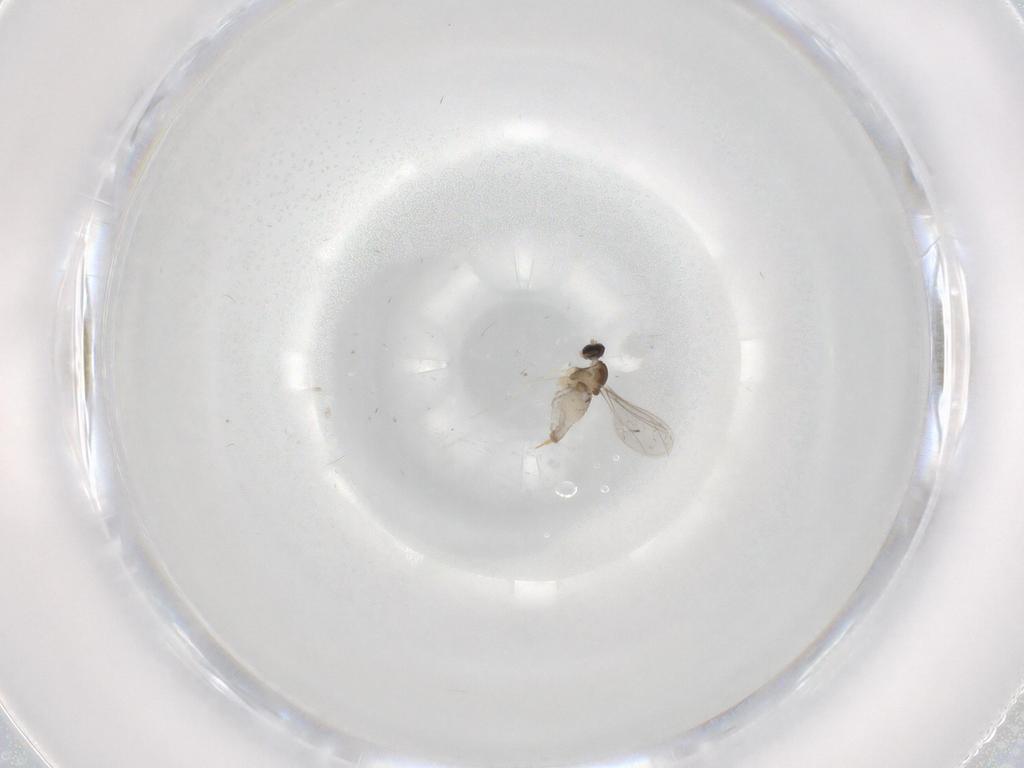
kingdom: Animalia
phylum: Arthropoda
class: Insecta
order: Diptera
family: Cecidomyiidae
